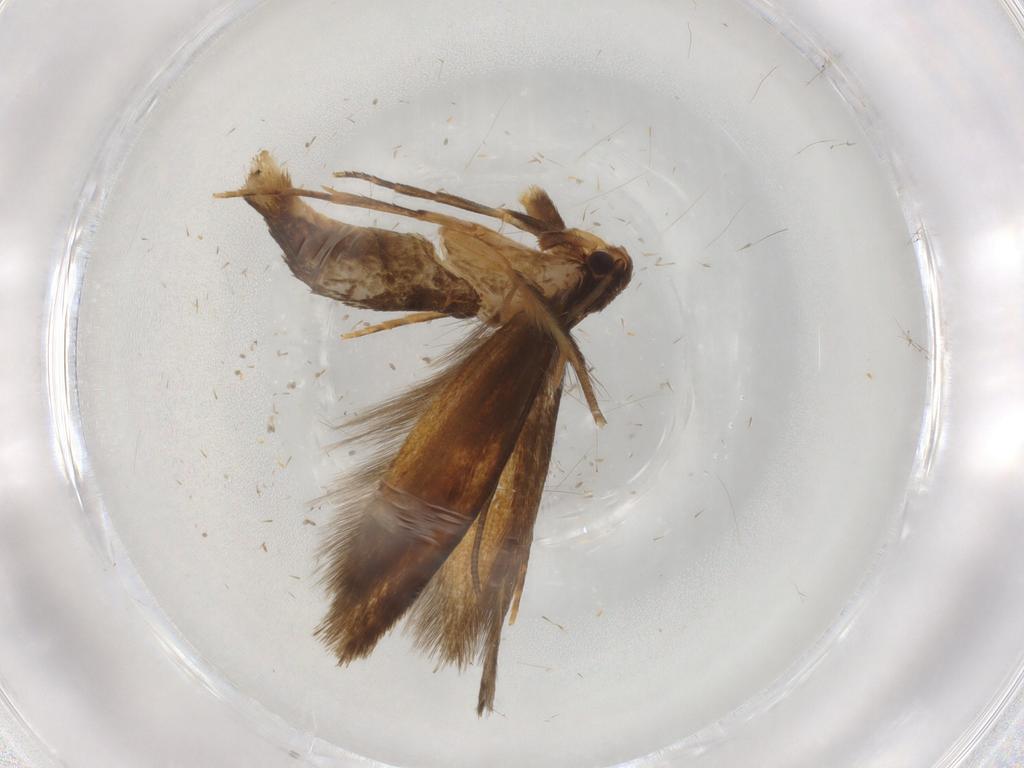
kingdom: Animalia
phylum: Arthropoda
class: Insecta
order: Lepidoptera
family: Tineidae
